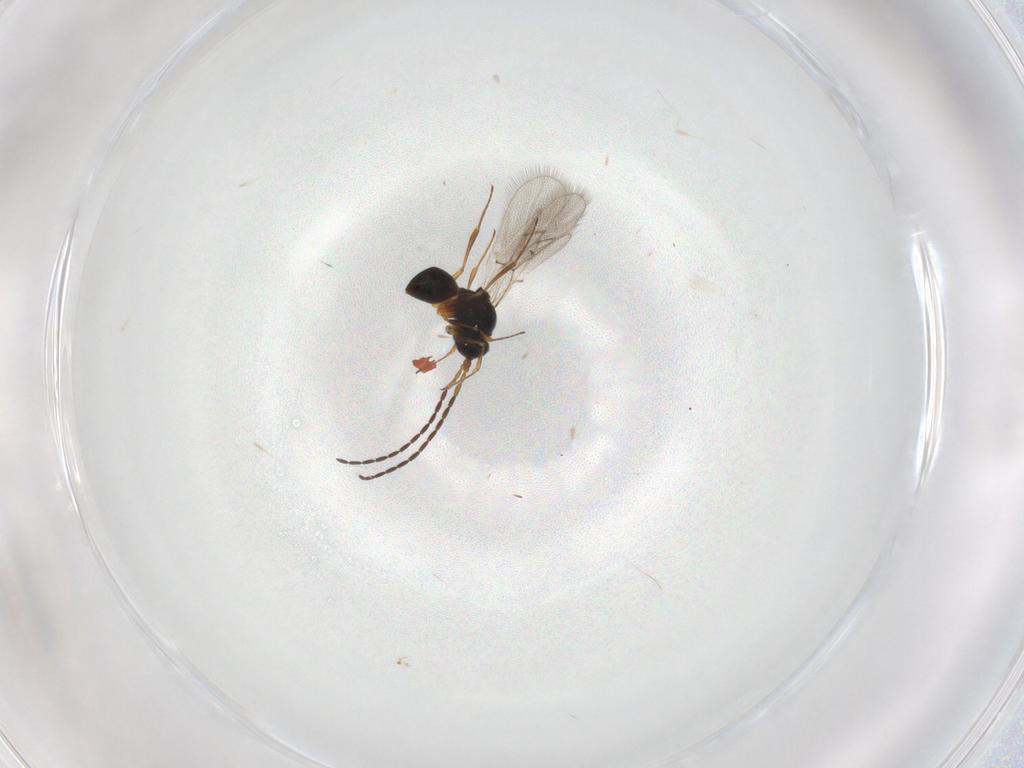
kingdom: Animalia
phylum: Arthropoda
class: Insecta
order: Hymenoptera
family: Figitidae
